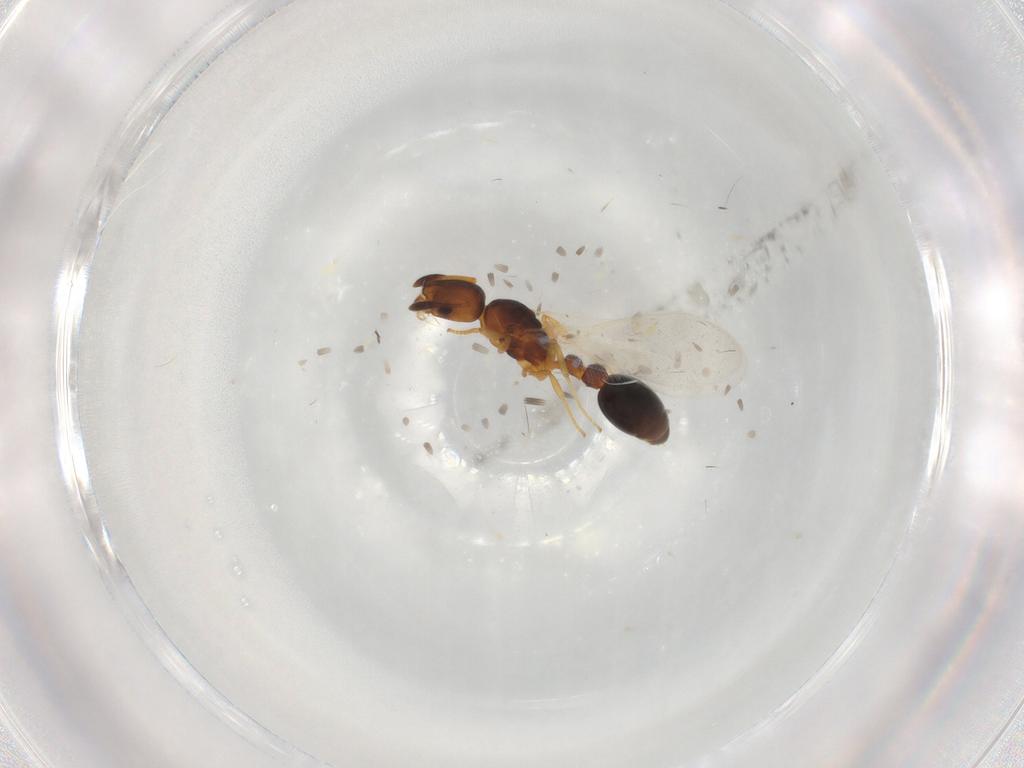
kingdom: Animalia
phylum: Arthropoda
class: Insecta
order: Hymenoptera
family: Formicidae
